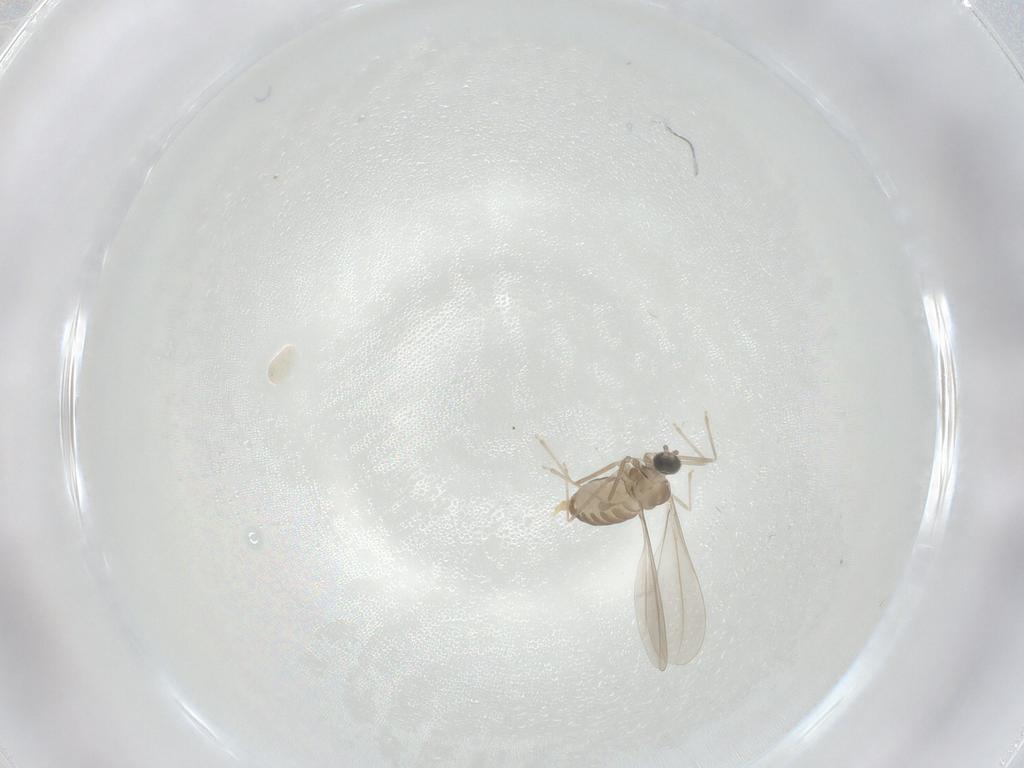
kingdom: Animalia
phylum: Arthropoda
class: Insecta
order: Diptera
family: Cecidomyiidae
